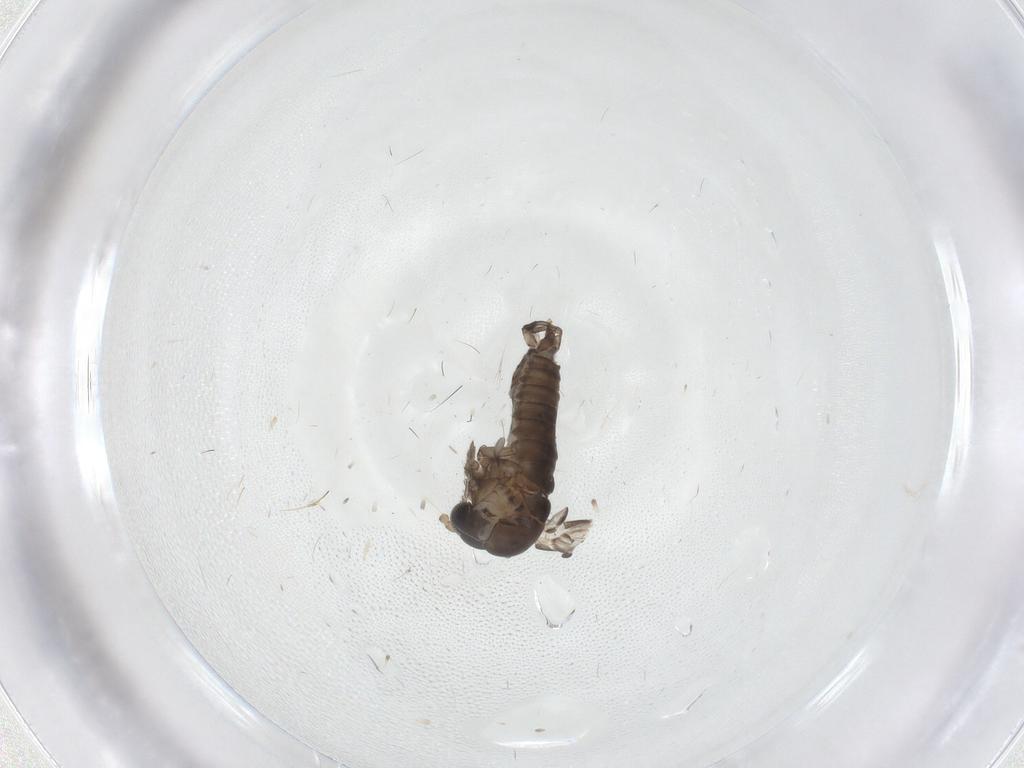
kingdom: Animalia
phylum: Arthropoda
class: Insecta
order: Diptera
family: Psychodidae
